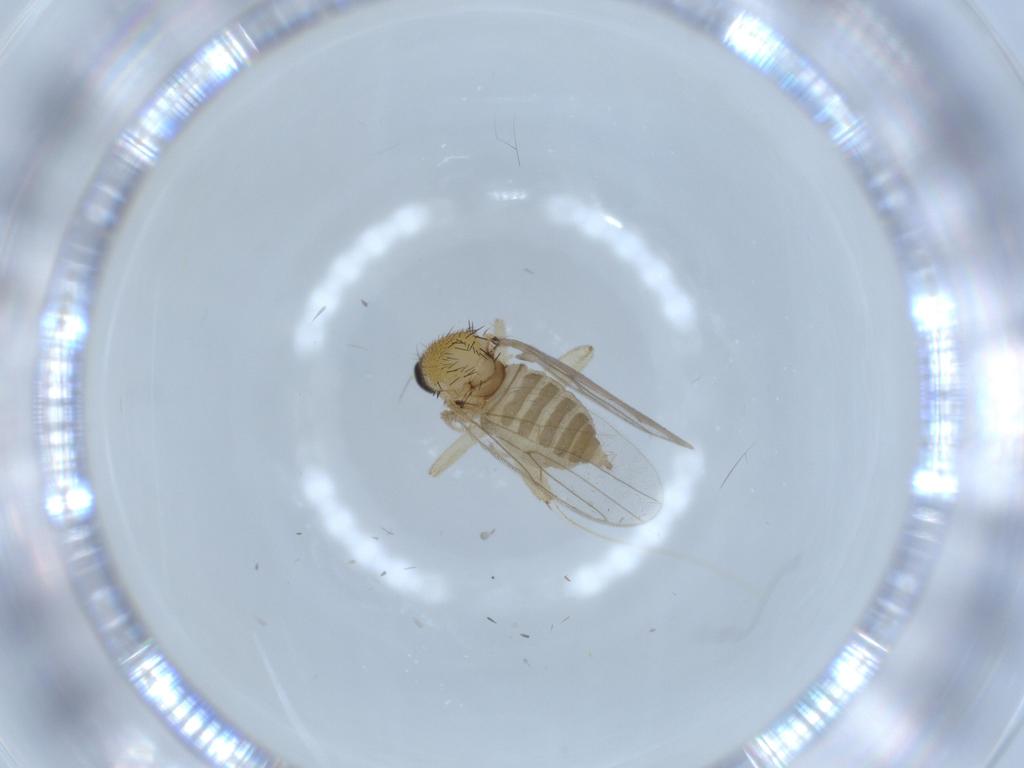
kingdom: Animalia
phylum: Arthropoda
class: Insecta
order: Diptera
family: Hybotidae
